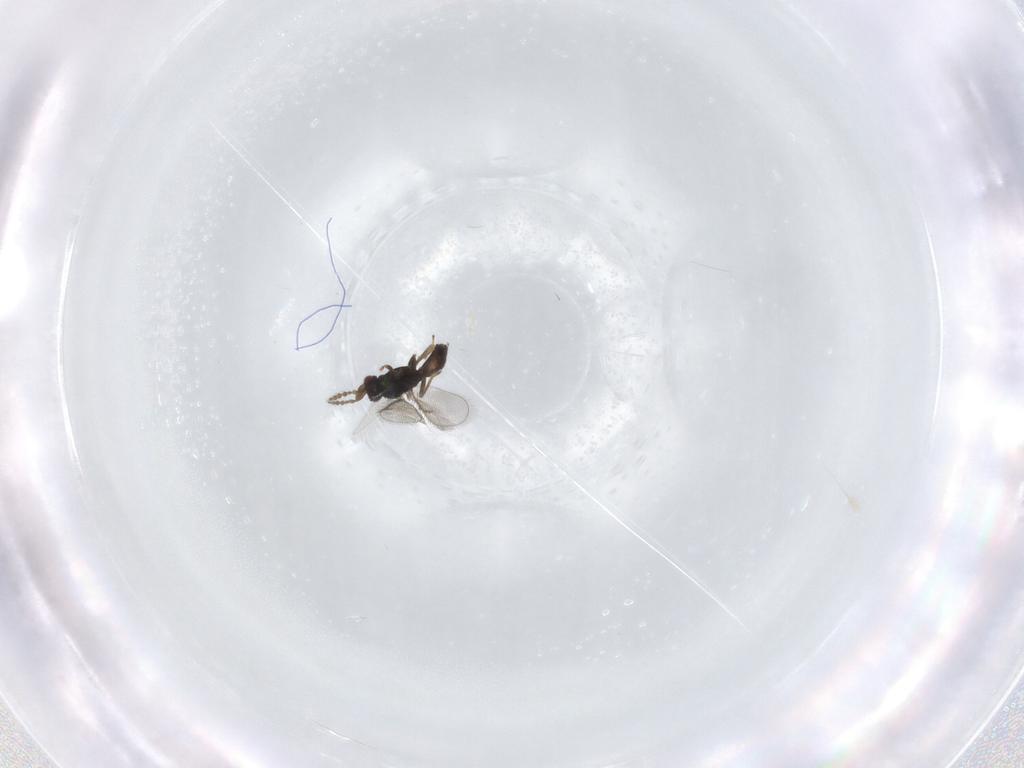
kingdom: Animalia
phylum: Arthropoda
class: Insecta
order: Hymenoptera
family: Eulophidae
